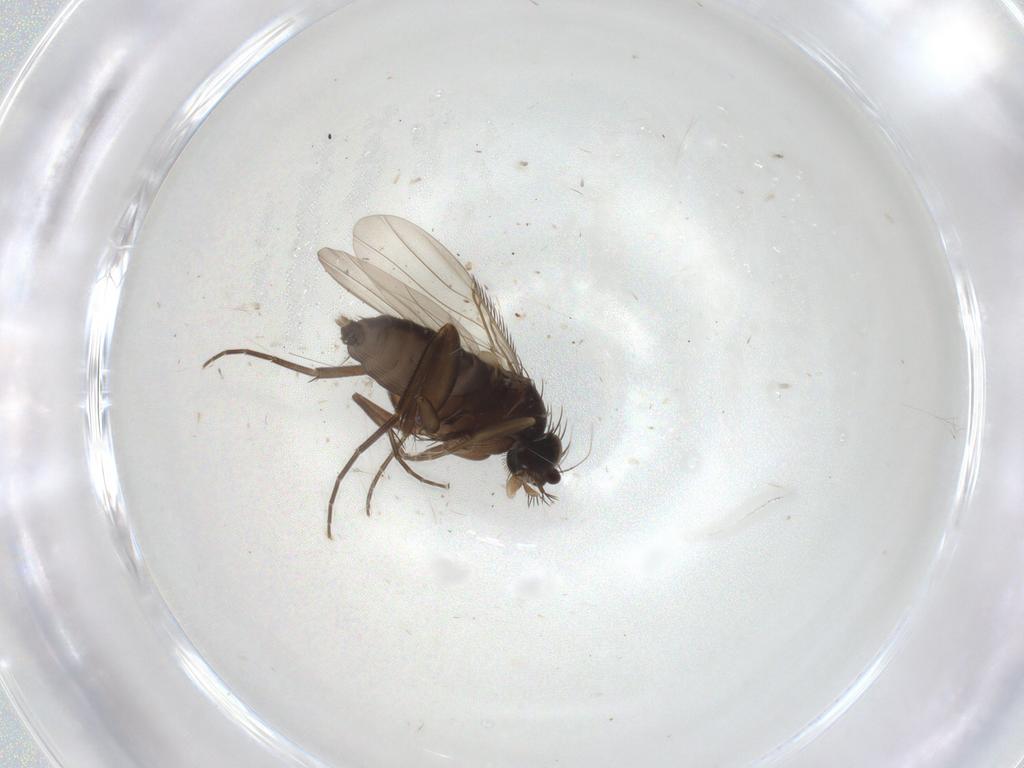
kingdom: Animalia
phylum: Arthropoda
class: Insecta
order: Diptera
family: Phoridae
